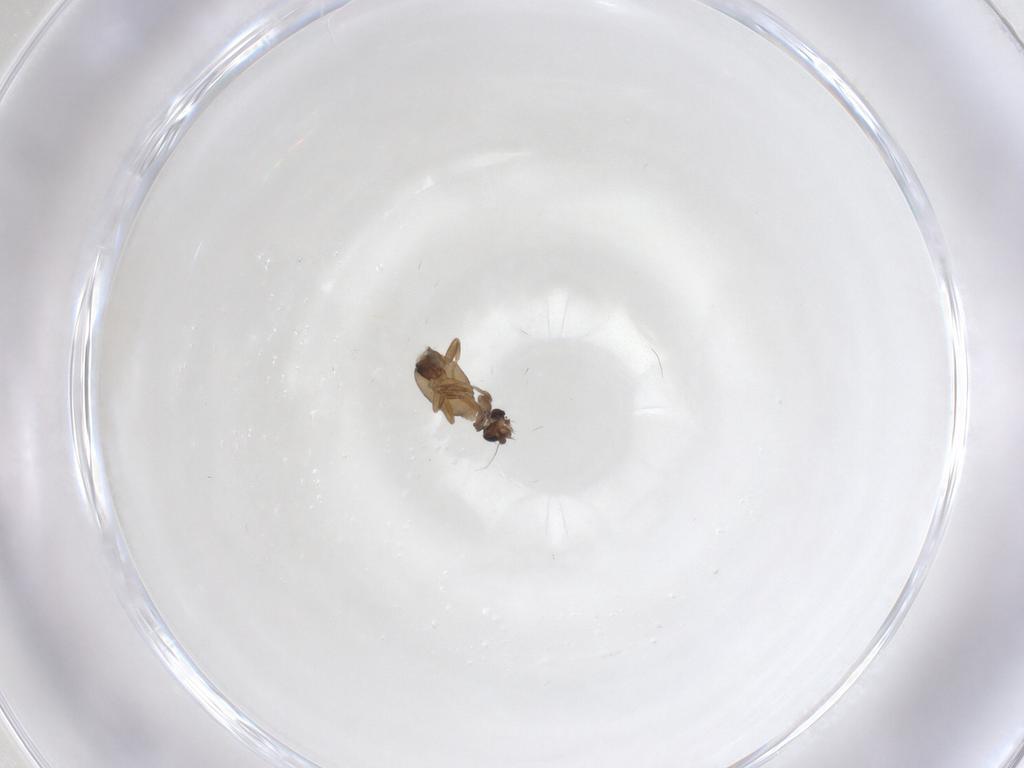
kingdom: Animalia
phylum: Arthropoda
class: Insecta
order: Diptera
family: Phoridae
